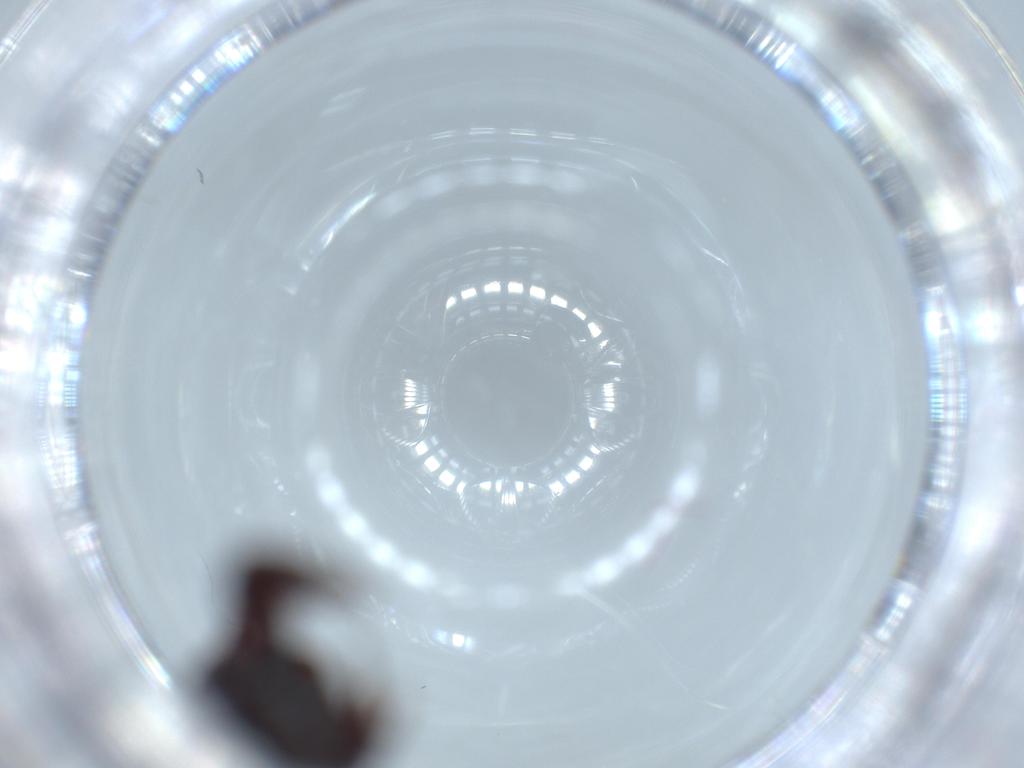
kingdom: Animalia
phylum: Arthropoda
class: Insecta
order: Hymenoptera
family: Formicidae
